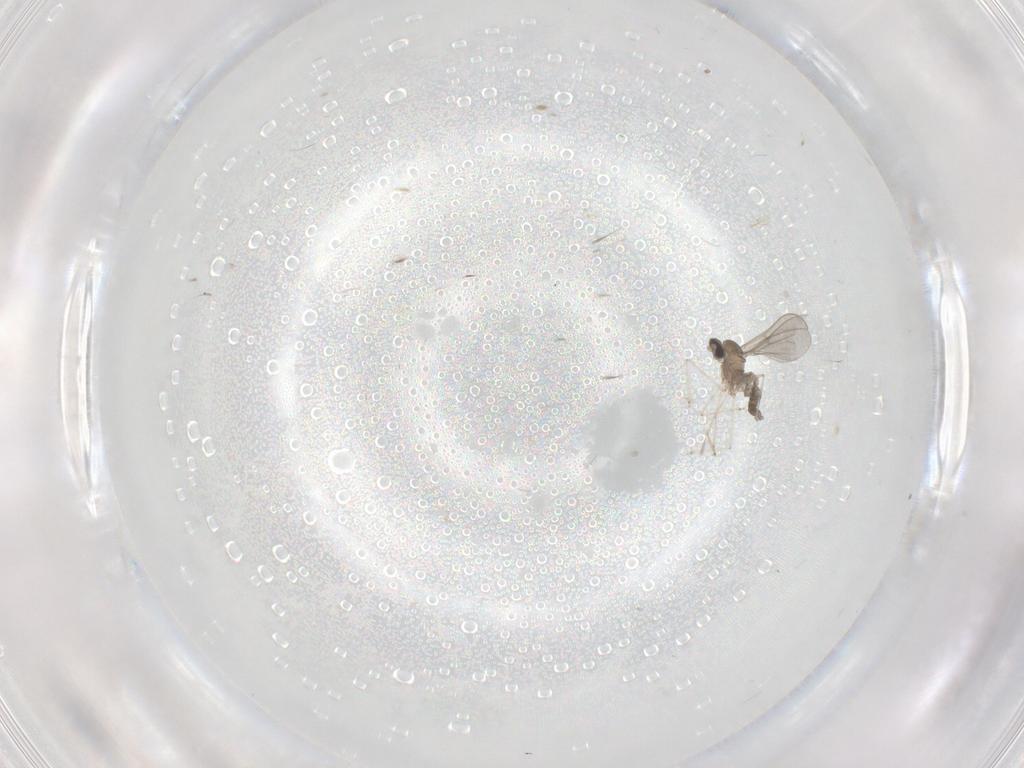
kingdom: Animalia
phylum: Arthropoda
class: Insecta
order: Diptera
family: Cecidomyiidae
